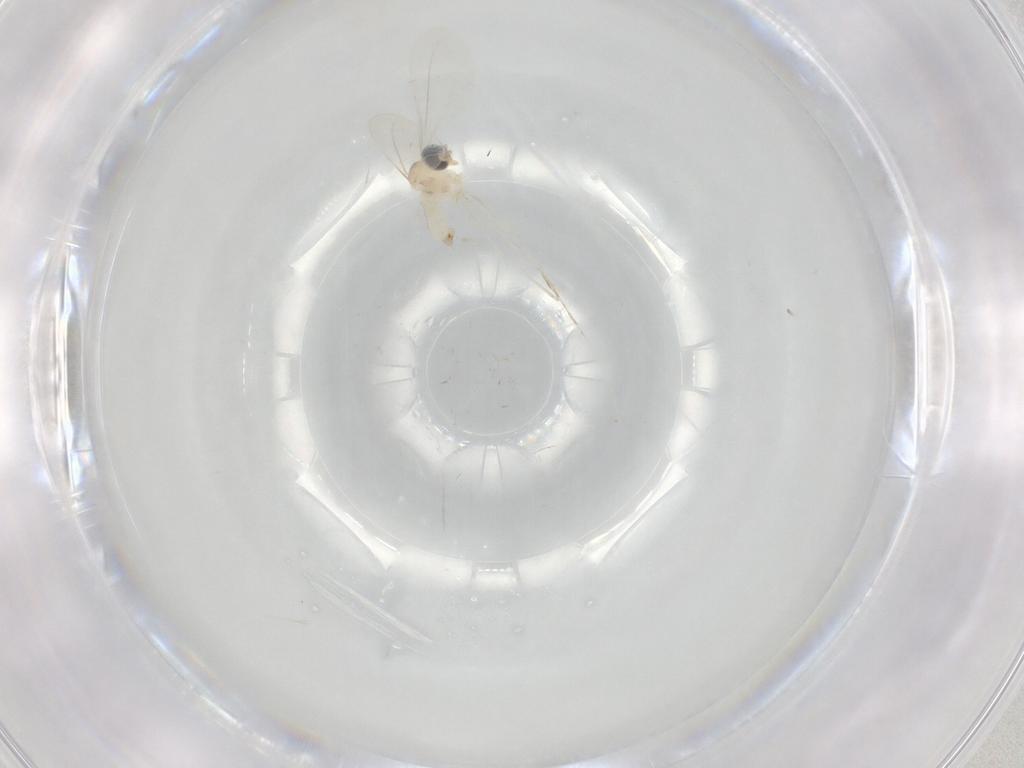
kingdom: Animalia
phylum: Arthropoda
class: Insecta
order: Diptera
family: Cecidomyiidae
